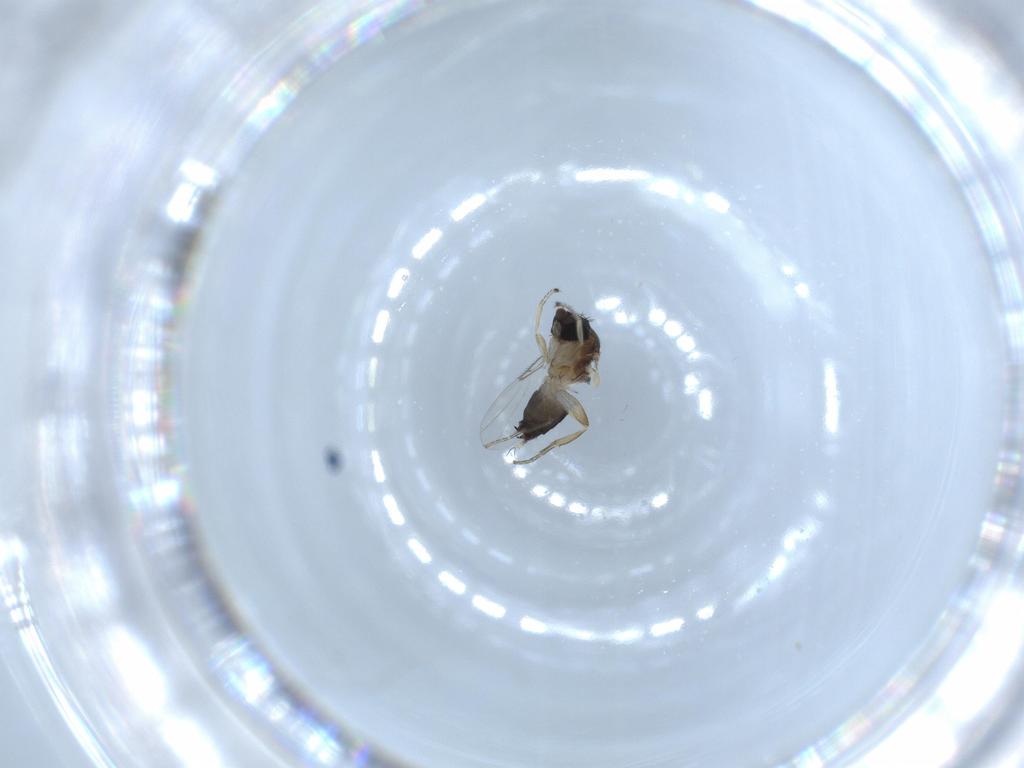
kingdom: Animalia
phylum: Arthropoda
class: Insecta
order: Diptera
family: Phoridae
